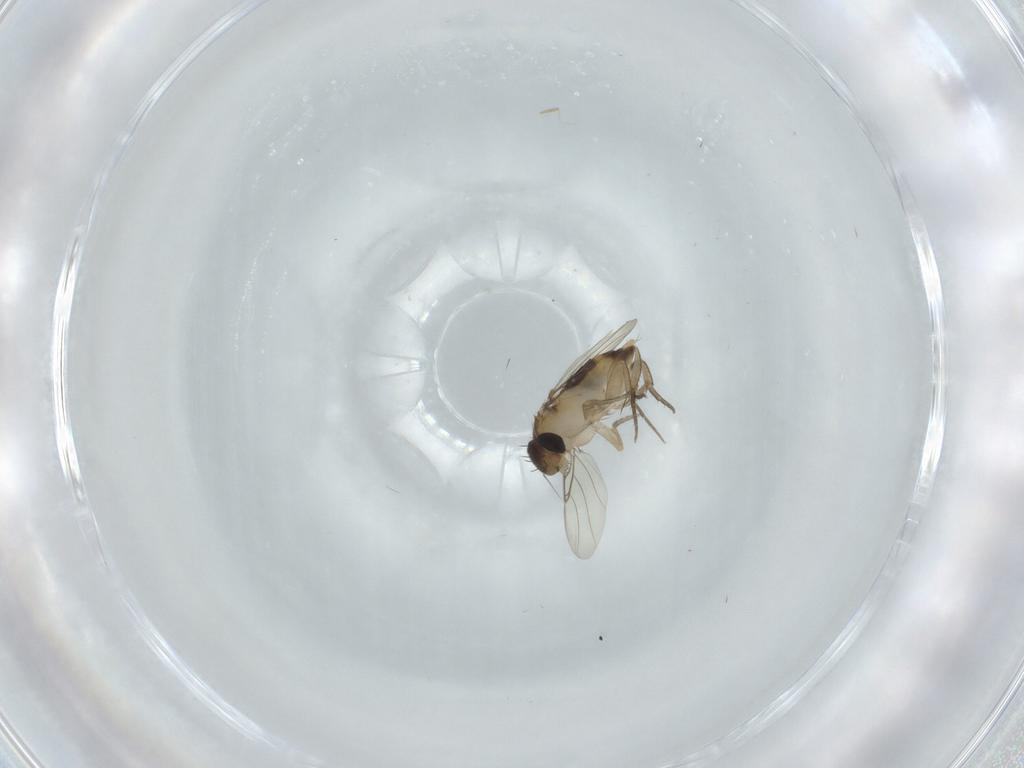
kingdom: Animalia
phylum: Arthropoda
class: Insecta
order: Diptera
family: Phoridae
